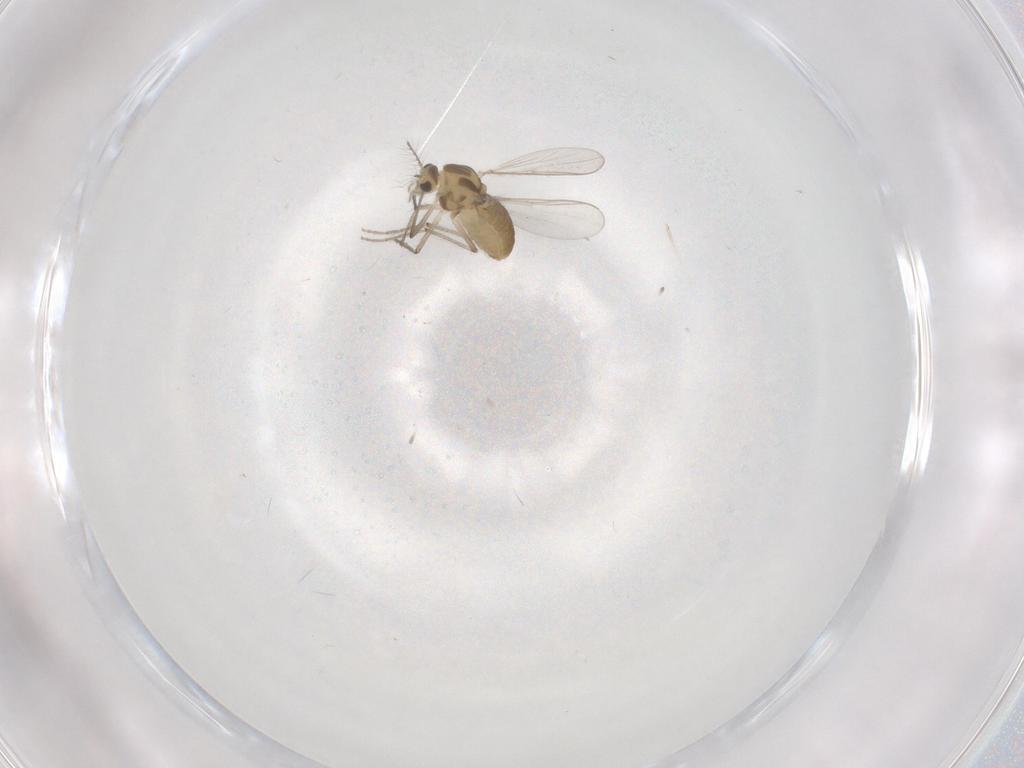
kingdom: Animalia
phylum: Arthropoda
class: Insecta
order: Diptera
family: Chironomidae
